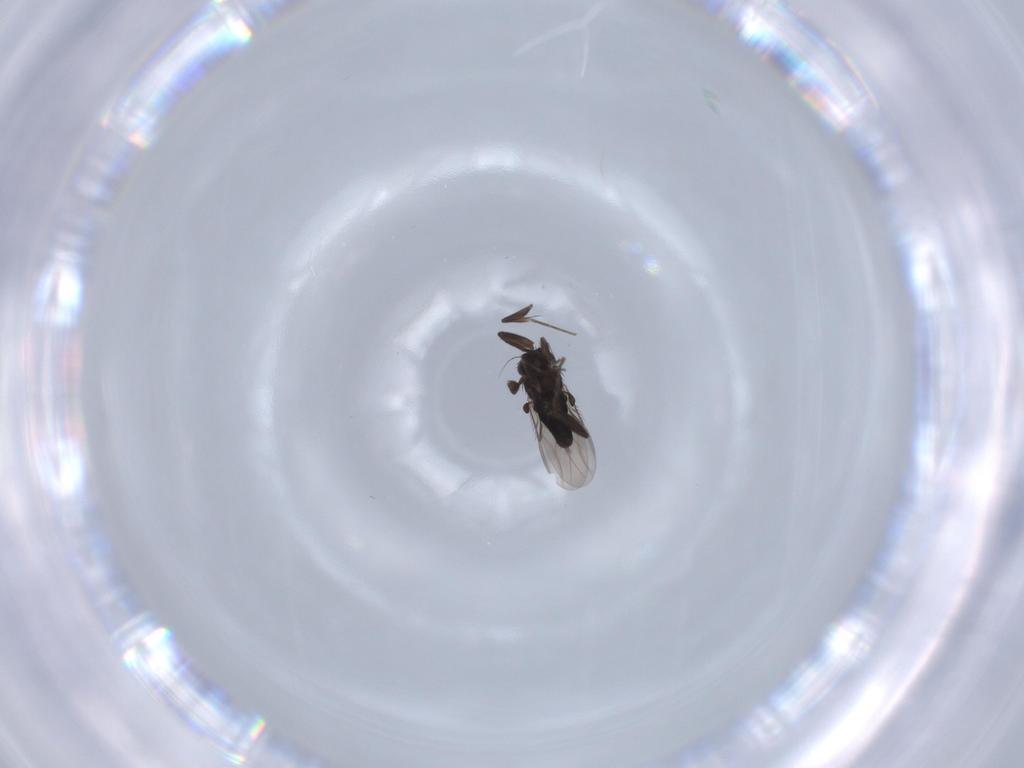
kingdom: Animalia
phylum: Arthropoda
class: Insecta
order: Diptera
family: Phoridae
